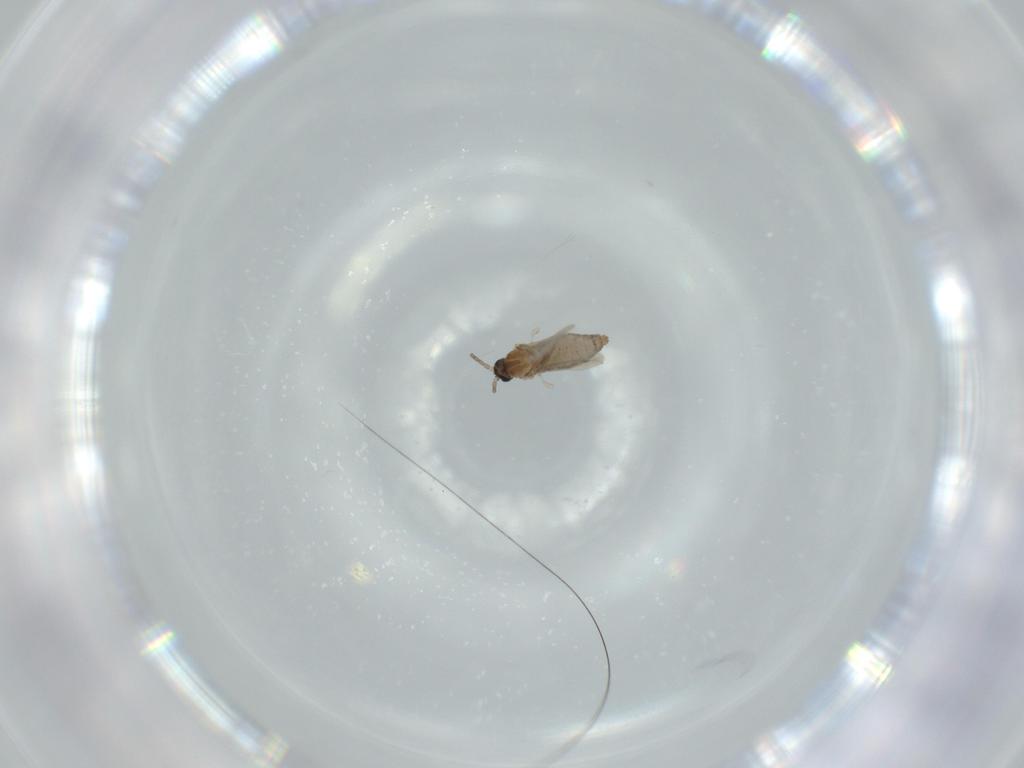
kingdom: Animalia
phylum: Arthropoda
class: Insecta
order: Diptera
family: Cecidomyiidae
